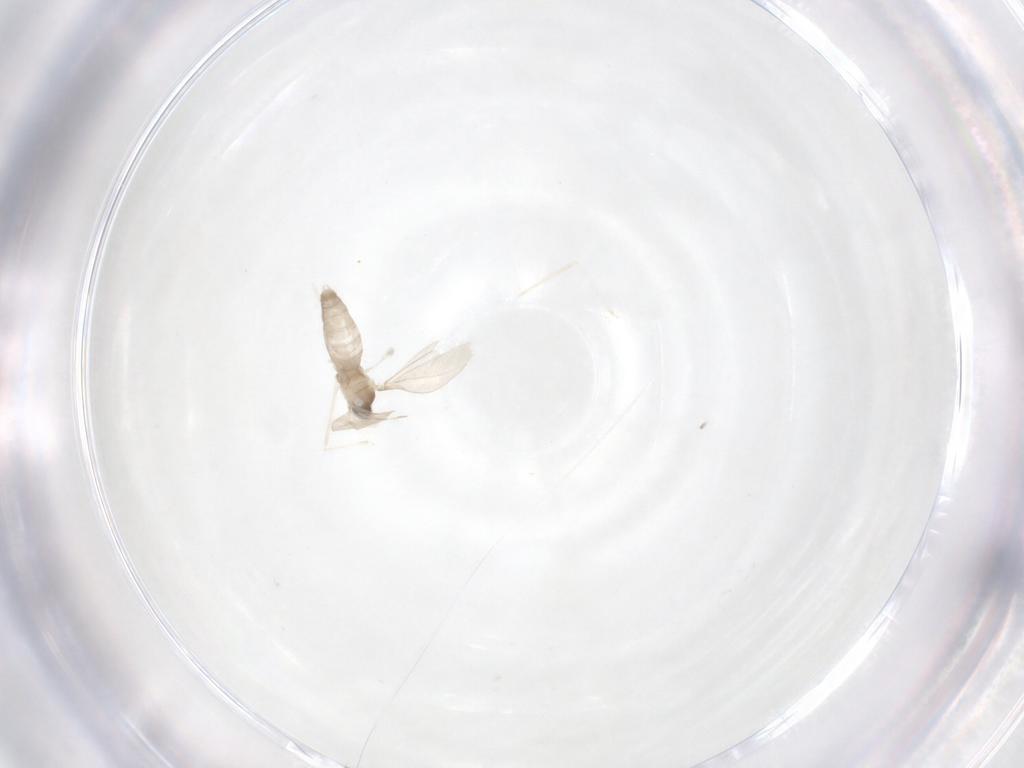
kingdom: Animalia
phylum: Arthropoda
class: Insecta
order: Diptera
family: Cecidomyiidae
